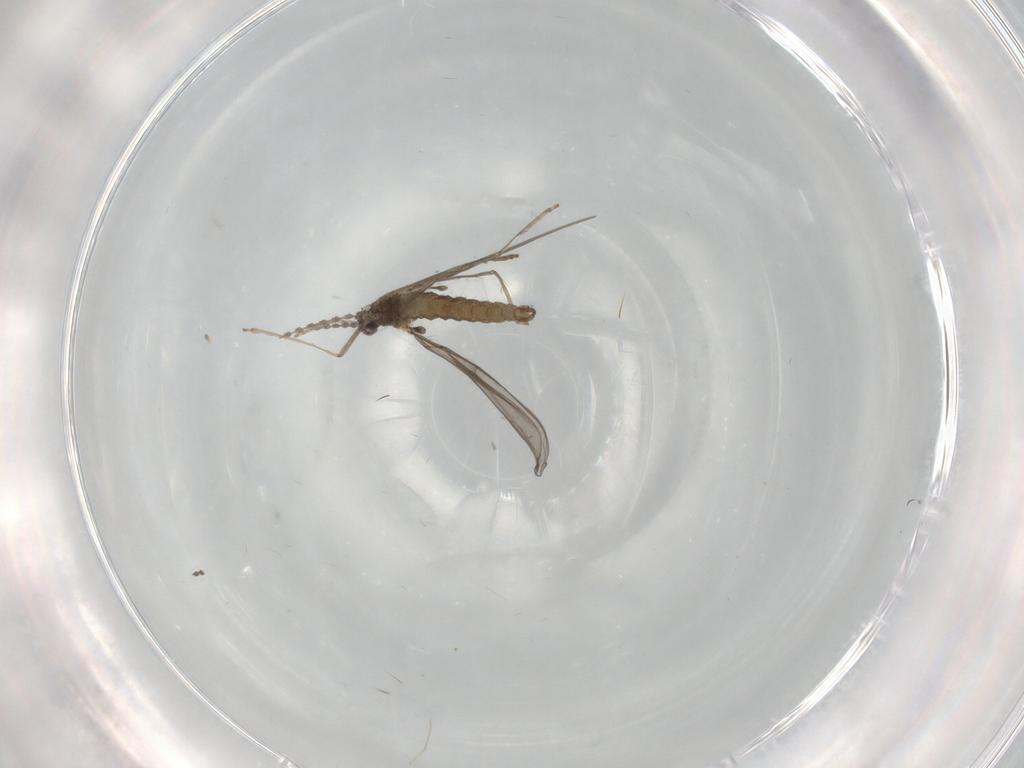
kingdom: Animalia
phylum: Arthropoda
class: Insecta
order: Diptera
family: Cecidomyiidae
